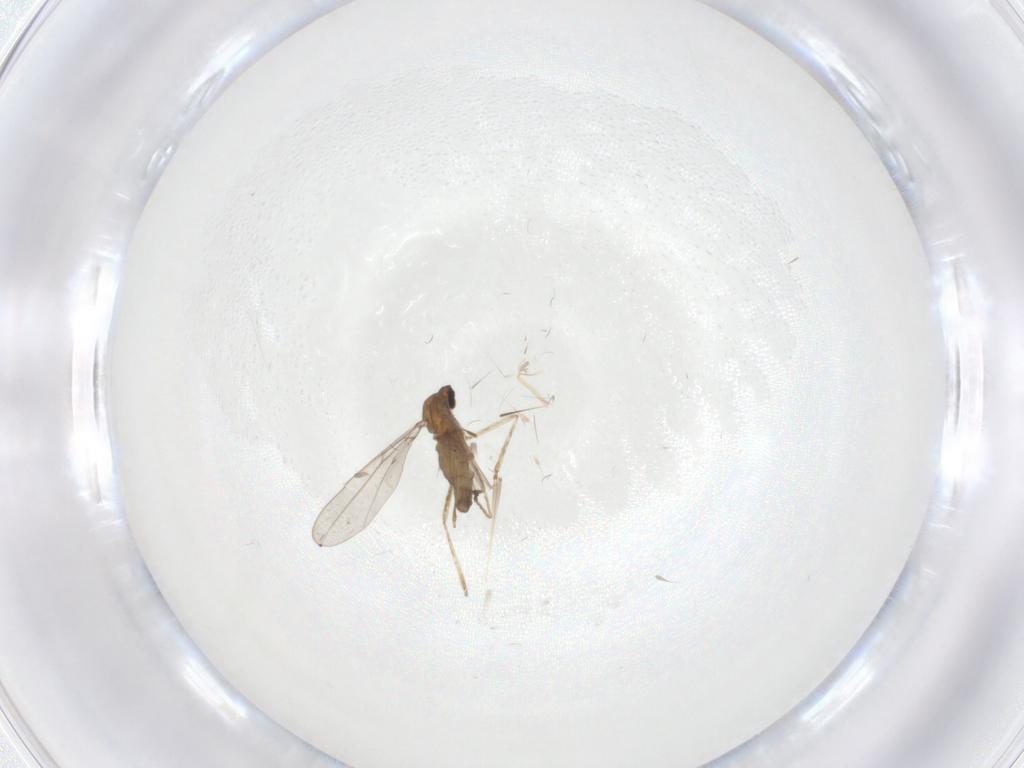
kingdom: Animalia
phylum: Arthropoda
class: Insecta
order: Diptera
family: Cecidomyiidae
